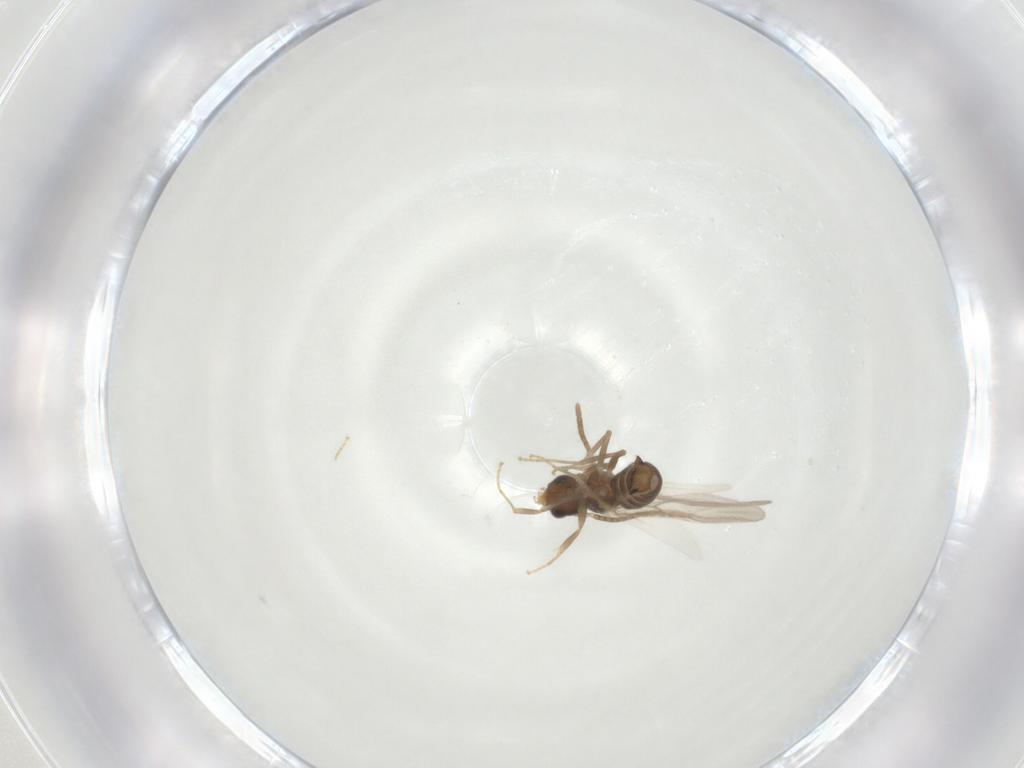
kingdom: Animalia
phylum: Arthropoda
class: Insecta
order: Hymenoptera
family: Formicidae
